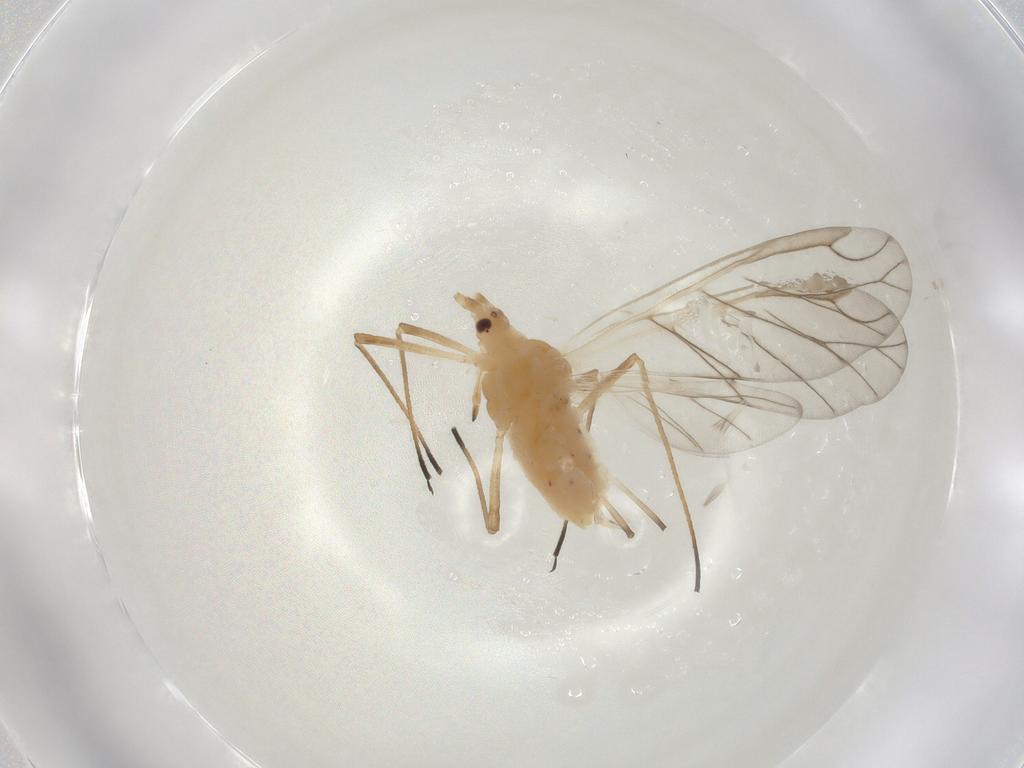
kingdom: Animalia
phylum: Arthropoda
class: Insecta
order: Hemiptera
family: Aphididae
